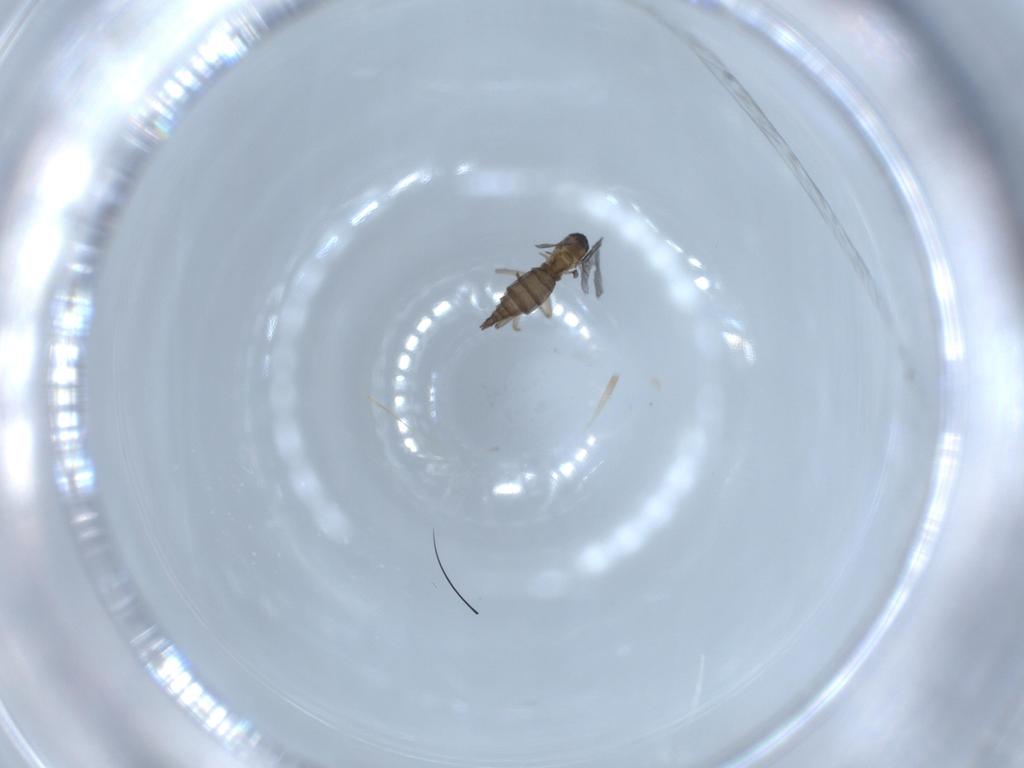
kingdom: Animalia
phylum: Arthropoda
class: Insecta
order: Diptera
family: Sciaridae
